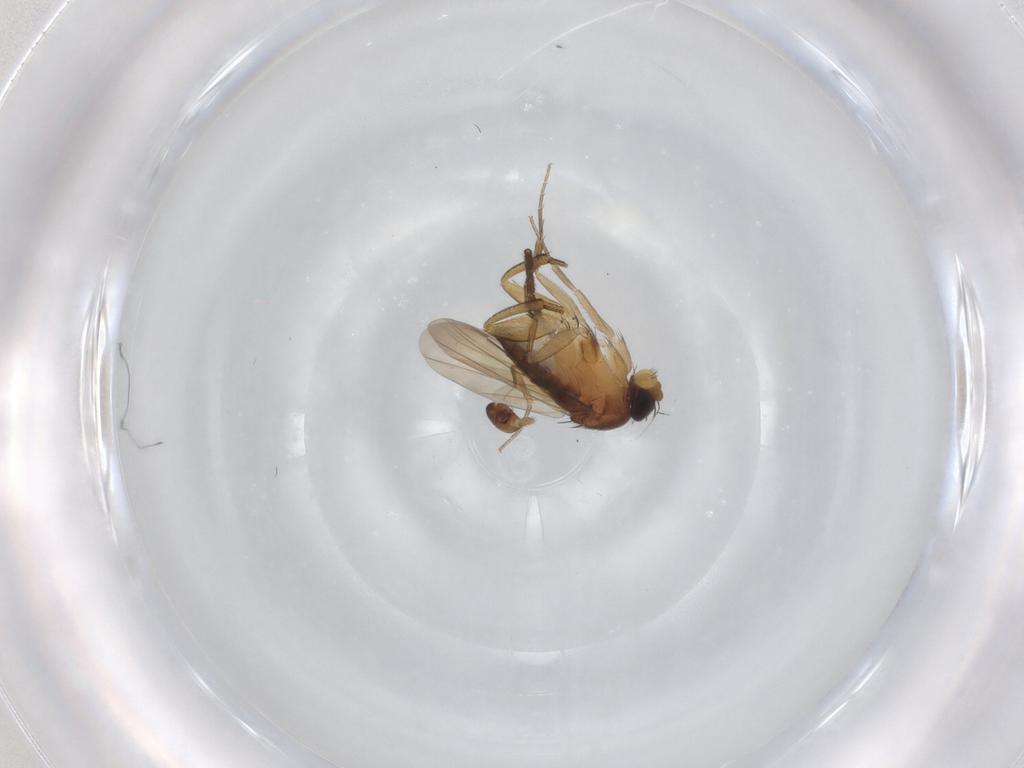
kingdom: Animalia
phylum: Arthropoda
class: Insecta
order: Diptera
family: Phoridae
